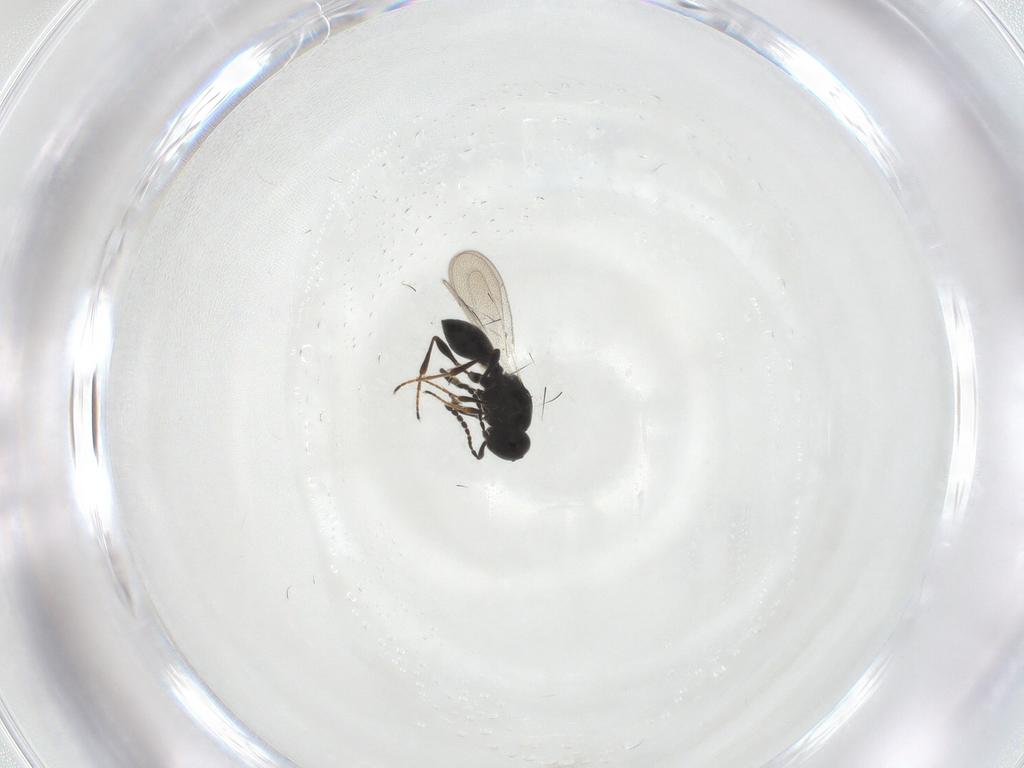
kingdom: Animalia
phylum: Arthropoda
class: Insecta
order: Hymenoptera
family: Platygastridae
